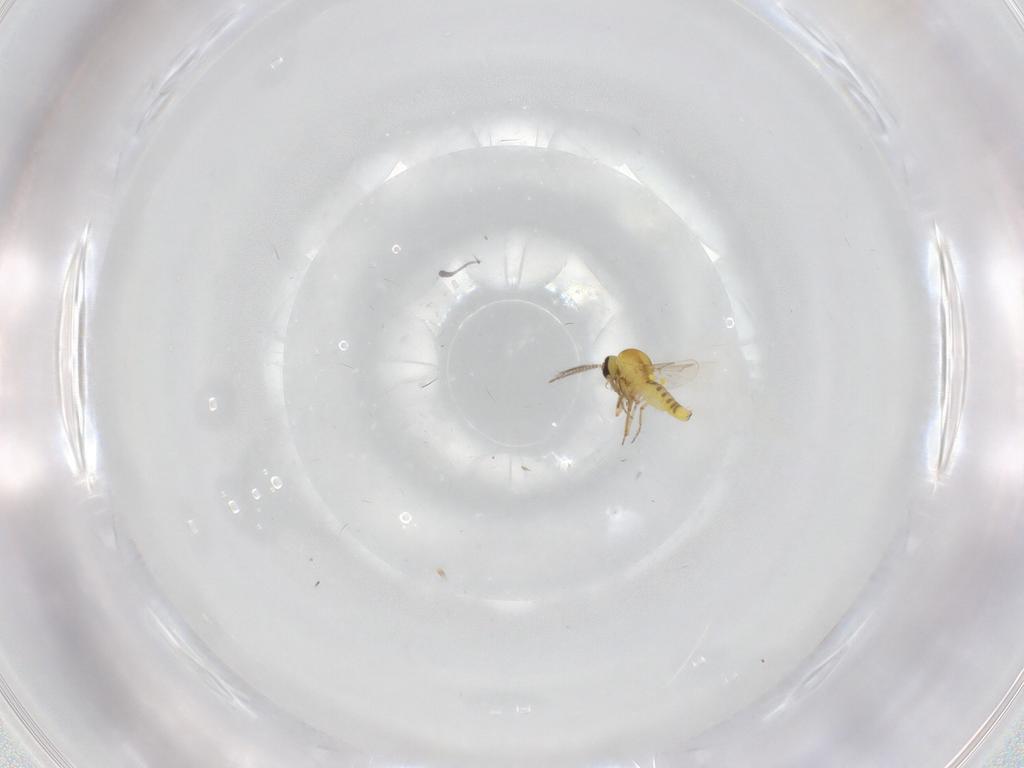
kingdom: Animalia
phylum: Arthropoda
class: Insecta
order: Diptera
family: Ceratopogonidae
